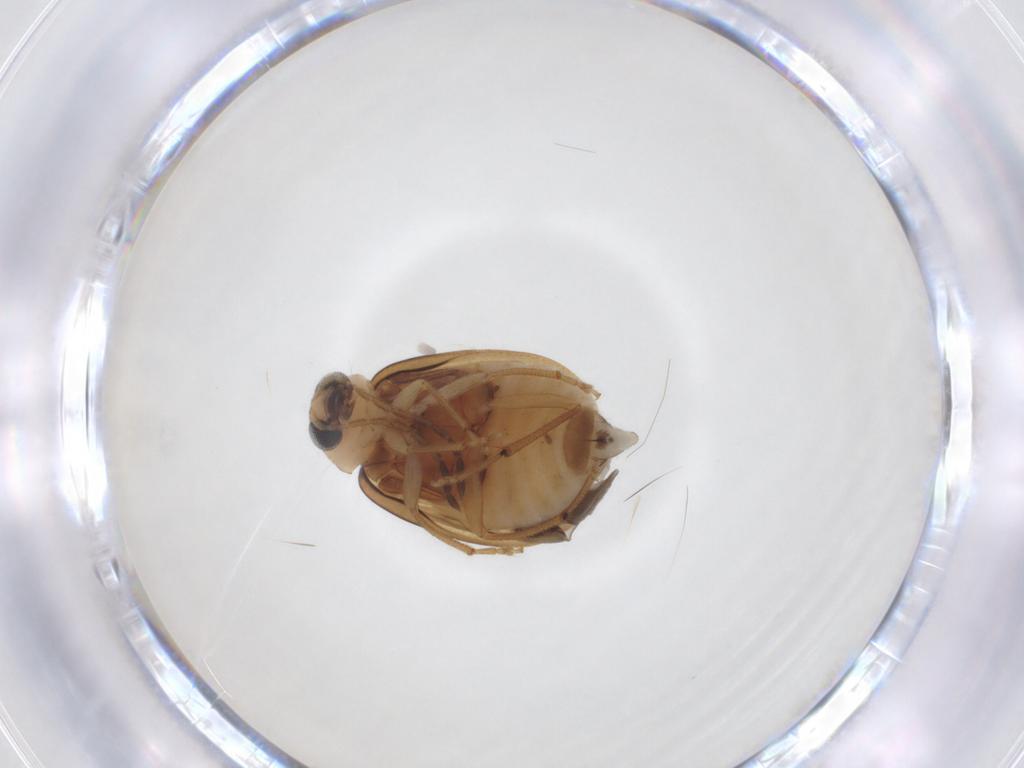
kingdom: Animalia
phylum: Arthropoda
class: Insecta
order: Coleoptera
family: Chrysomelidae
